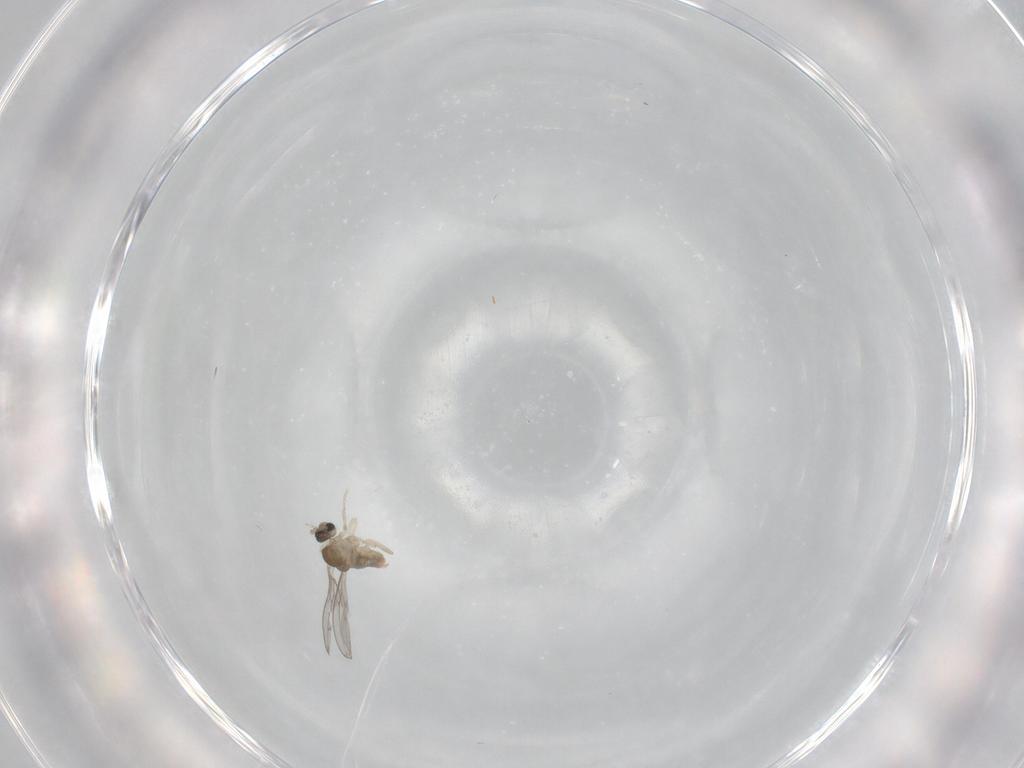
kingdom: Animalia
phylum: Arthropoda
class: Insecta
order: Diptera
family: Cecidomyiidae
